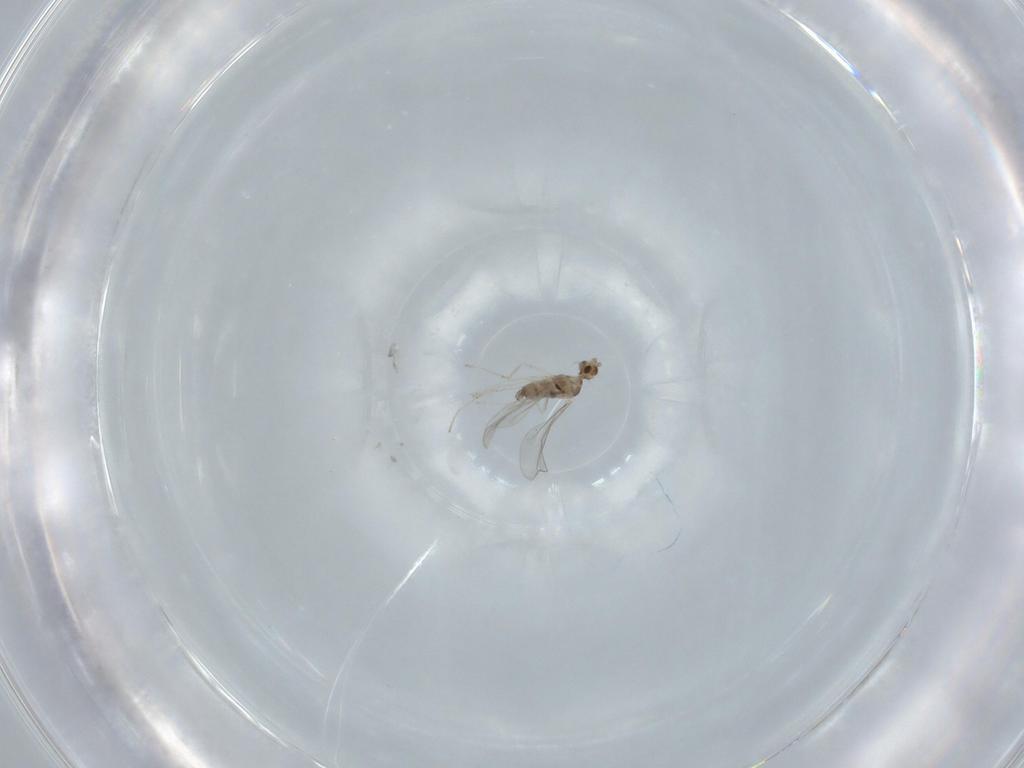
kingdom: Animalia
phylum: Arthropoda
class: Insecta
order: Diptera
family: Cecidomyiidae
